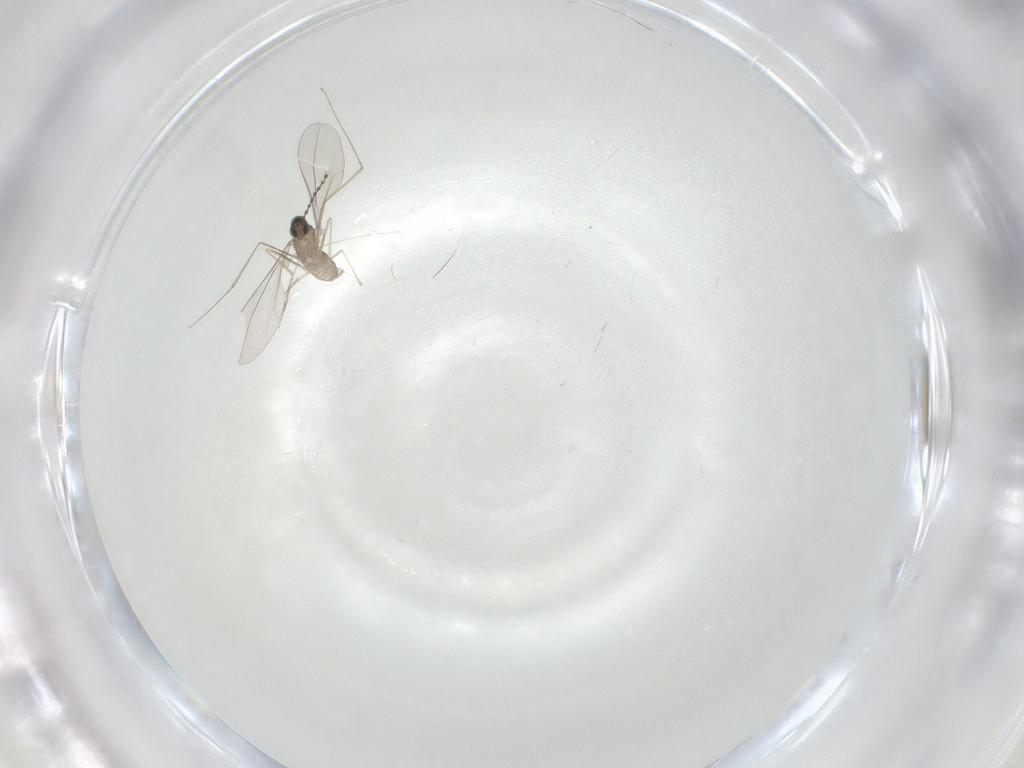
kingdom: Animalia
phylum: Arthropoda
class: Insecta
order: Diptera
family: Cecidomyiidae
